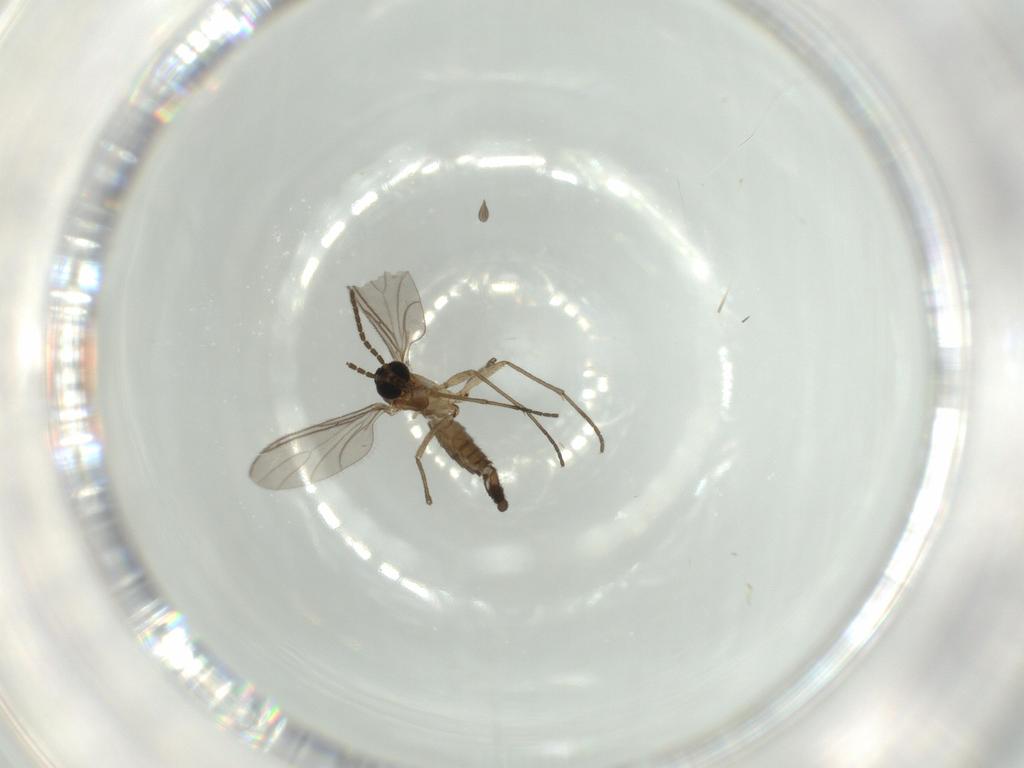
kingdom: Animalia
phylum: Arthropoda
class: Insecta
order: Diptera
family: Sciaridae
